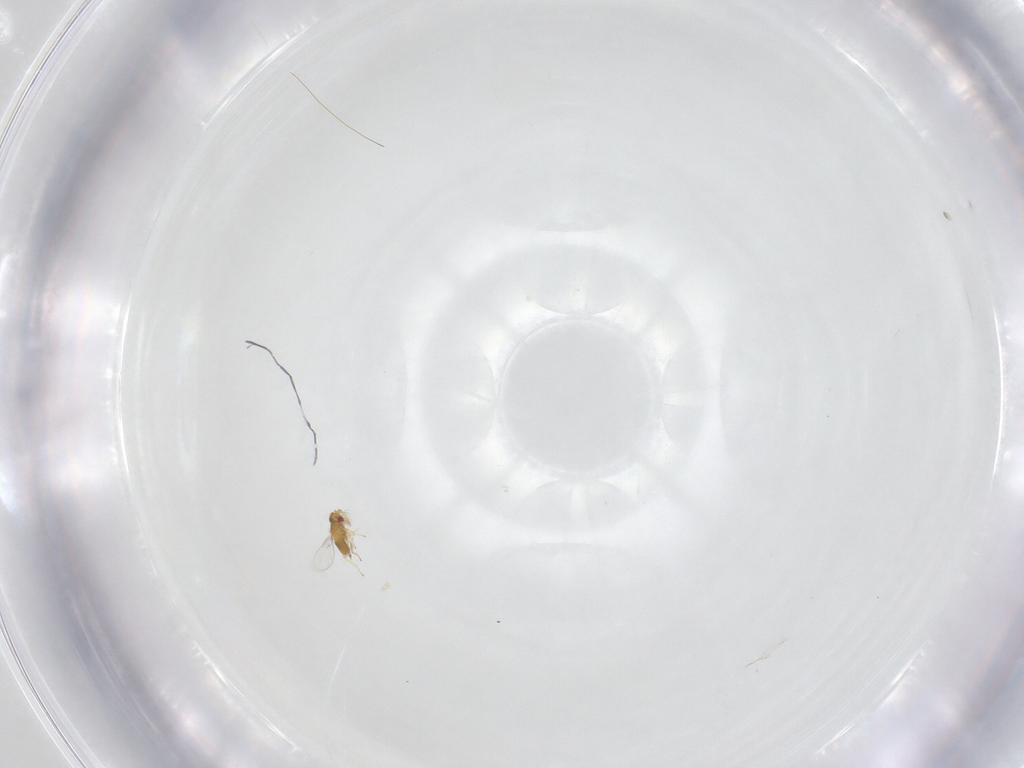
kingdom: Animalia
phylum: Arthropoda
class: Insecta
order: Hymenoptera
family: Trichogrammatidae
